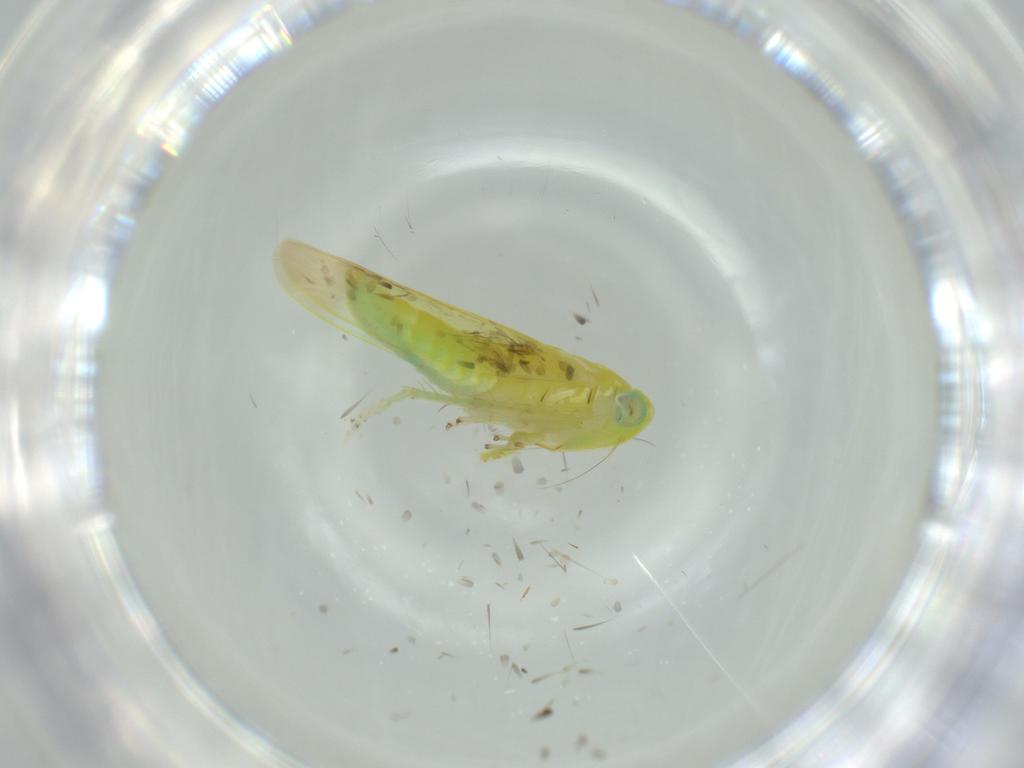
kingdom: Animalia
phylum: Arthropoda
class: Insecta
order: Hemiptera
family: Cicadellidae
